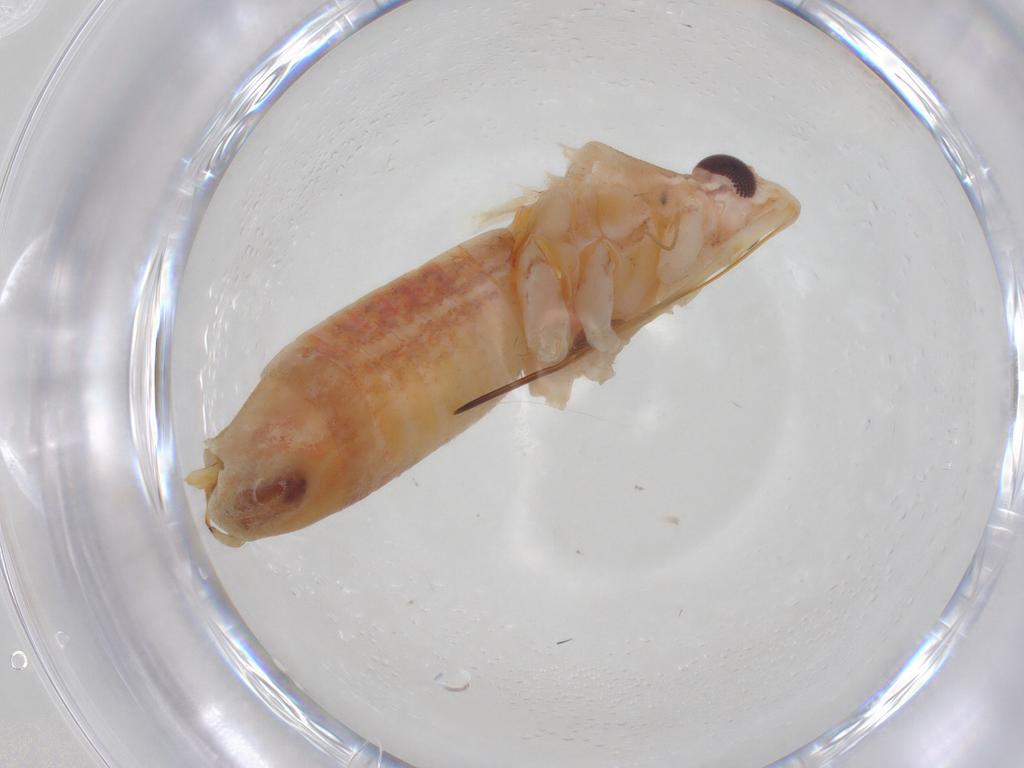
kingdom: Animalia
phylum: Arthropoda
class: Insecta
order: Hemiptera
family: Miridae
